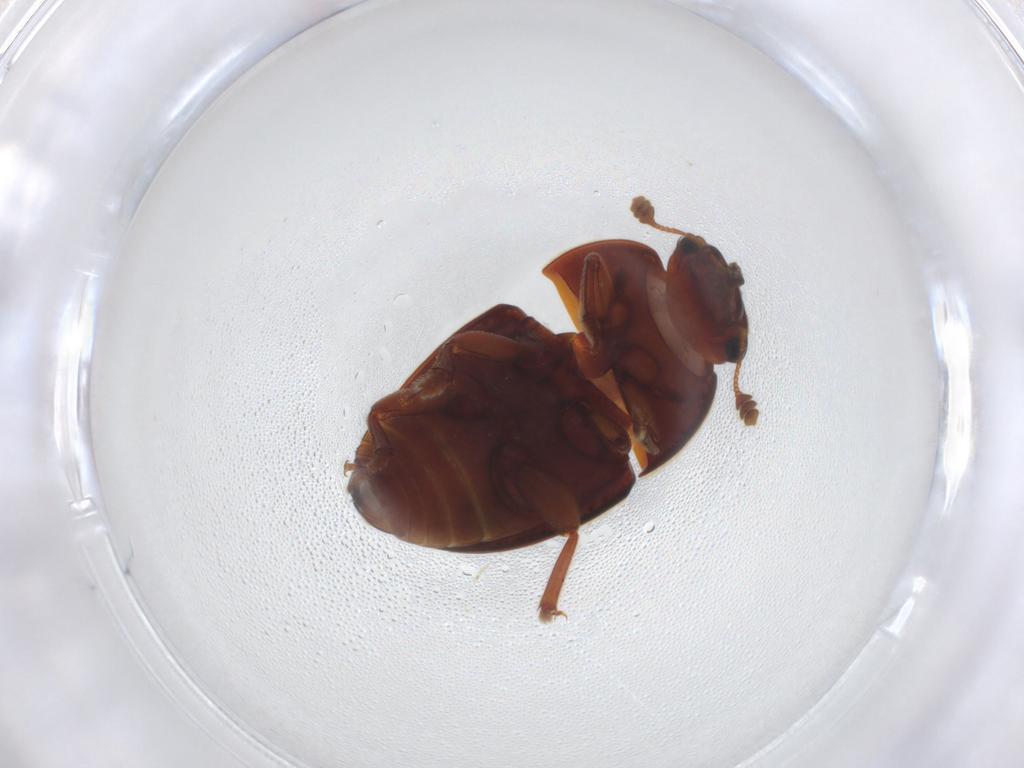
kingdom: Animalia
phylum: Arthropoda
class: Insecta
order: Coleoptera
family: Nitidulidae
